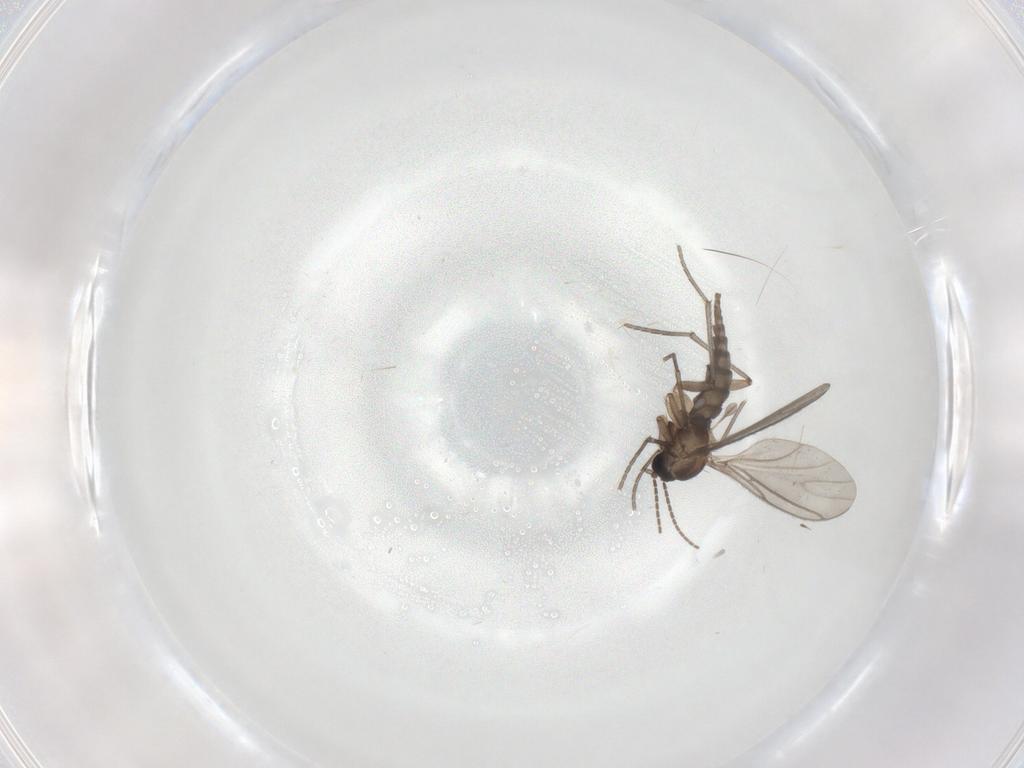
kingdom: Animalia
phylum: Arthropoda
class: Insecta
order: Diptera
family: Sciaridae
